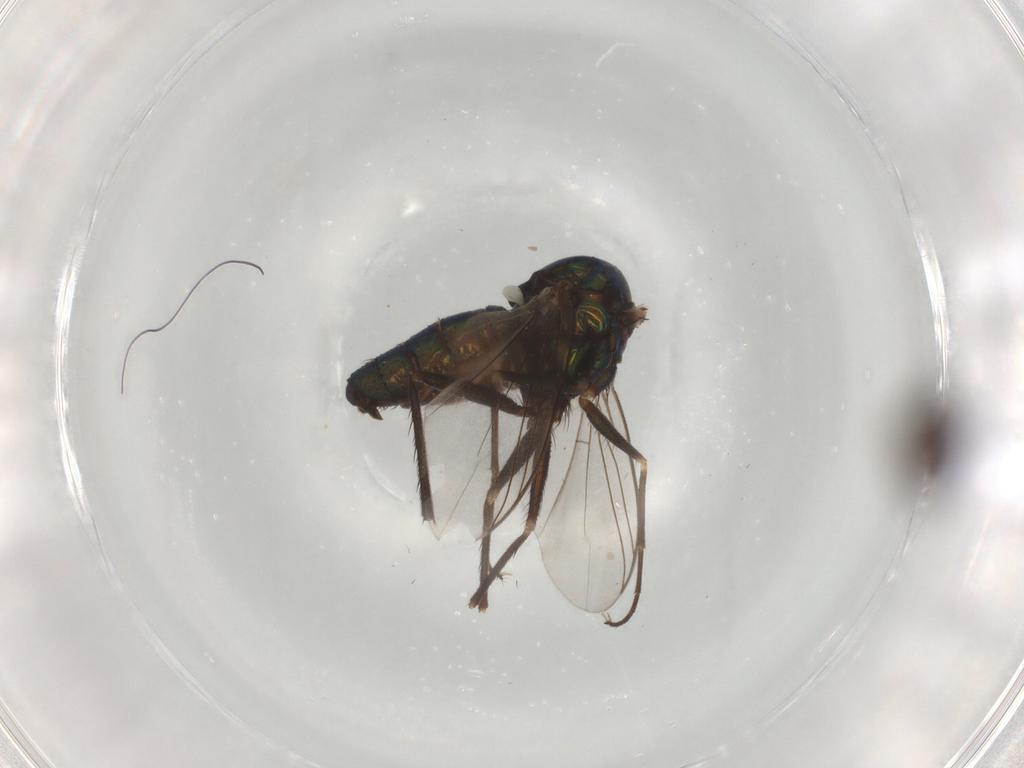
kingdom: Animalia
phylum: Arthropoda
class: Insecta
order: Diptera
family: Dolichopodidae
